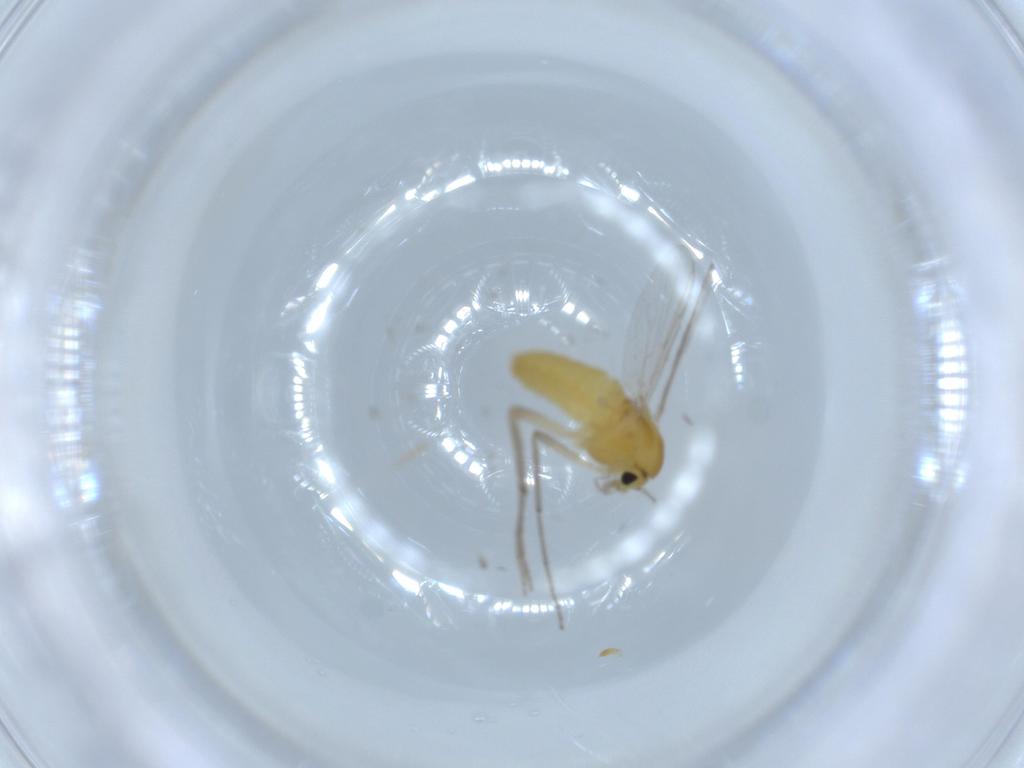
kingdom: Animalia
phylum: Arthropoda
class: Insecta
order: Diptera
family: Chironomidae
